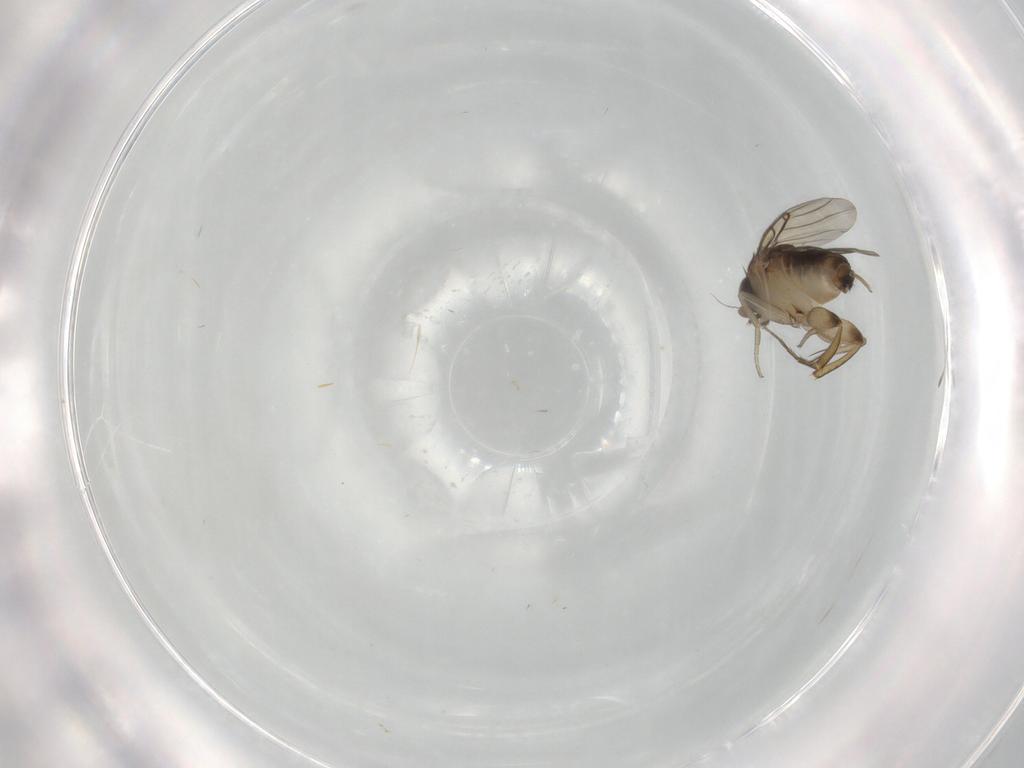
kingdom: Animalia
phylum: Arthropoda
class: Insecta
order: Diptera
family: Phoridae
